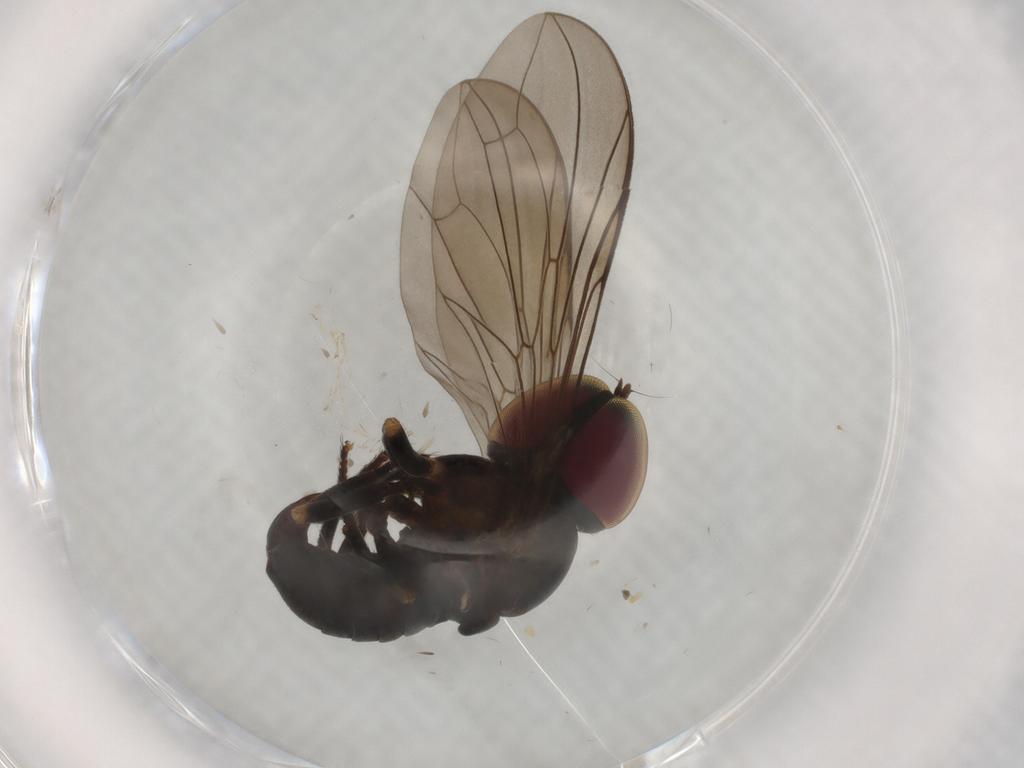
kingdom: Animalia
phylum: Arthropoda
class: Insecta
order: Diptera
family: Pipunculidae
